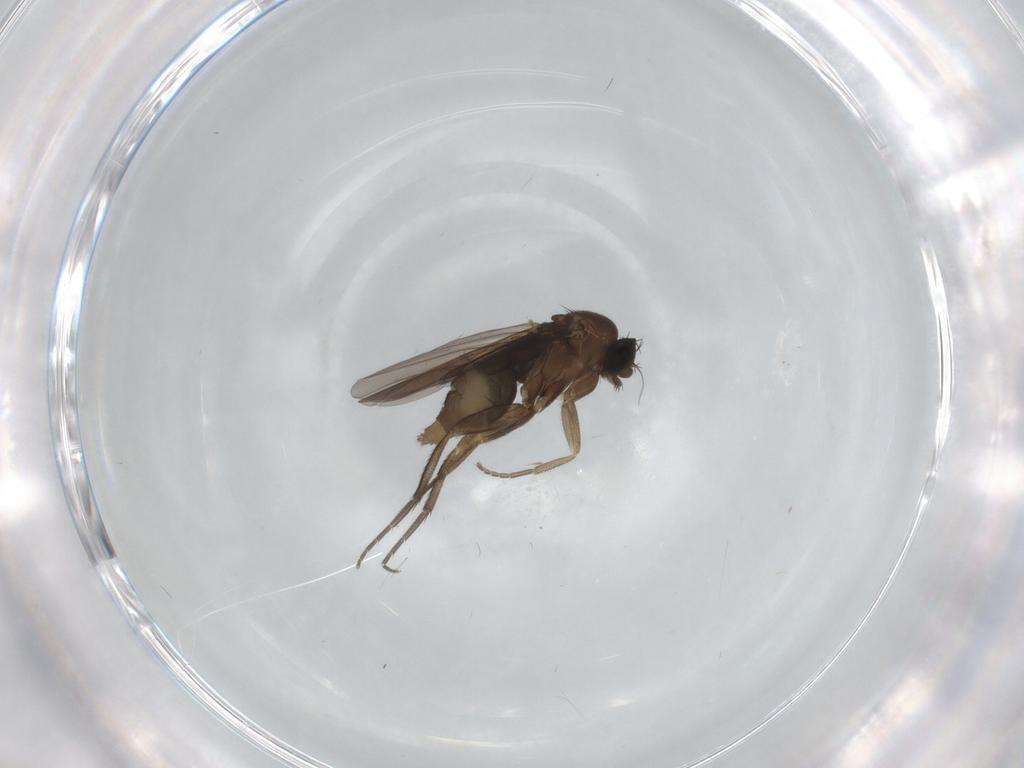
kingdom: Animalia
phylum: Arthropoda
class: Insecta
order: Diptera
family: Phoridae
